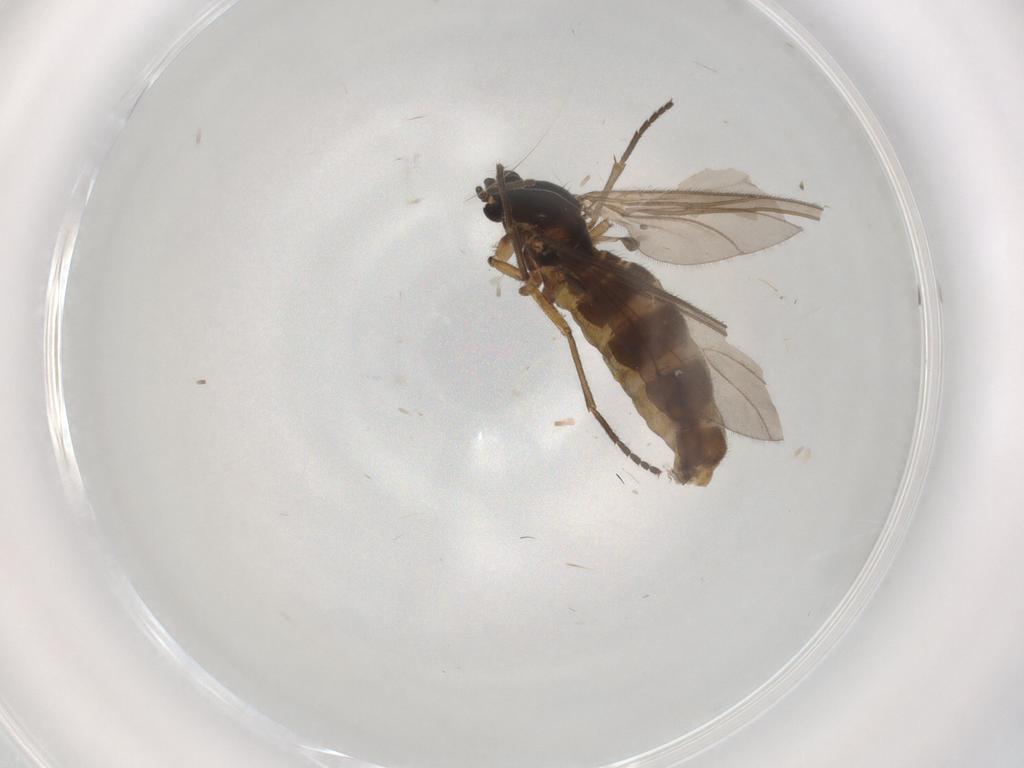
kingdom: Animalia
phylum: Arthropoda
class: Insecta
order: Diptera
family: Sciaridae
